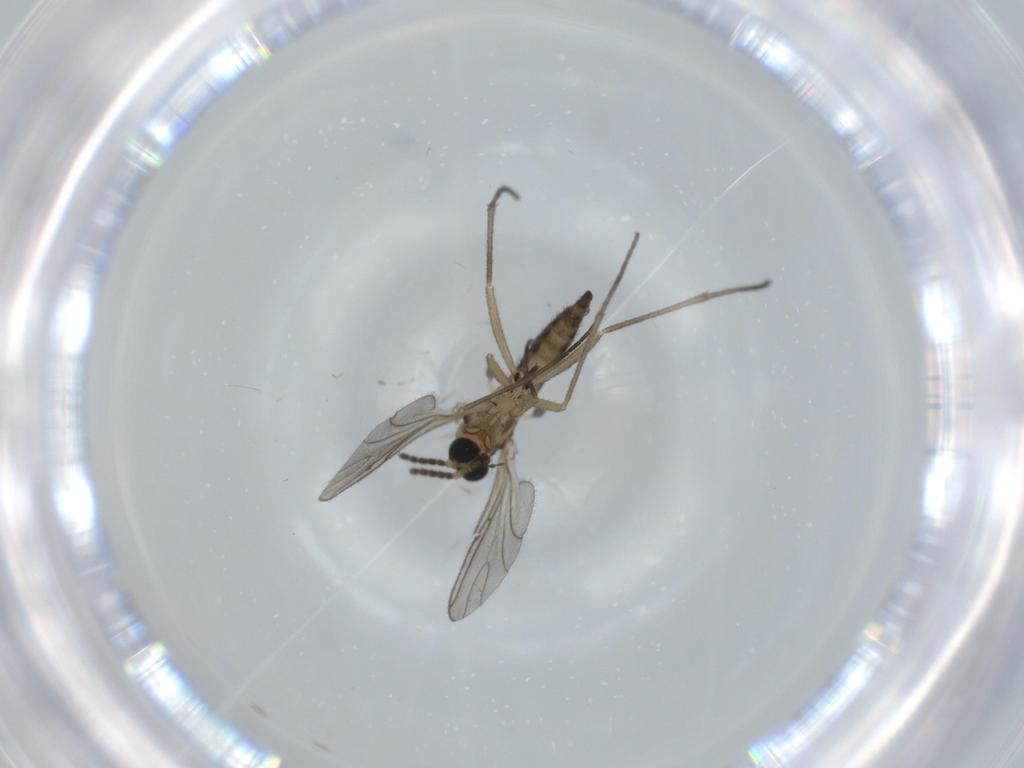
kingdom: Animalia
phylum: Arthropoda
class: Insecta
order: Diptera
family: Sciaridae
